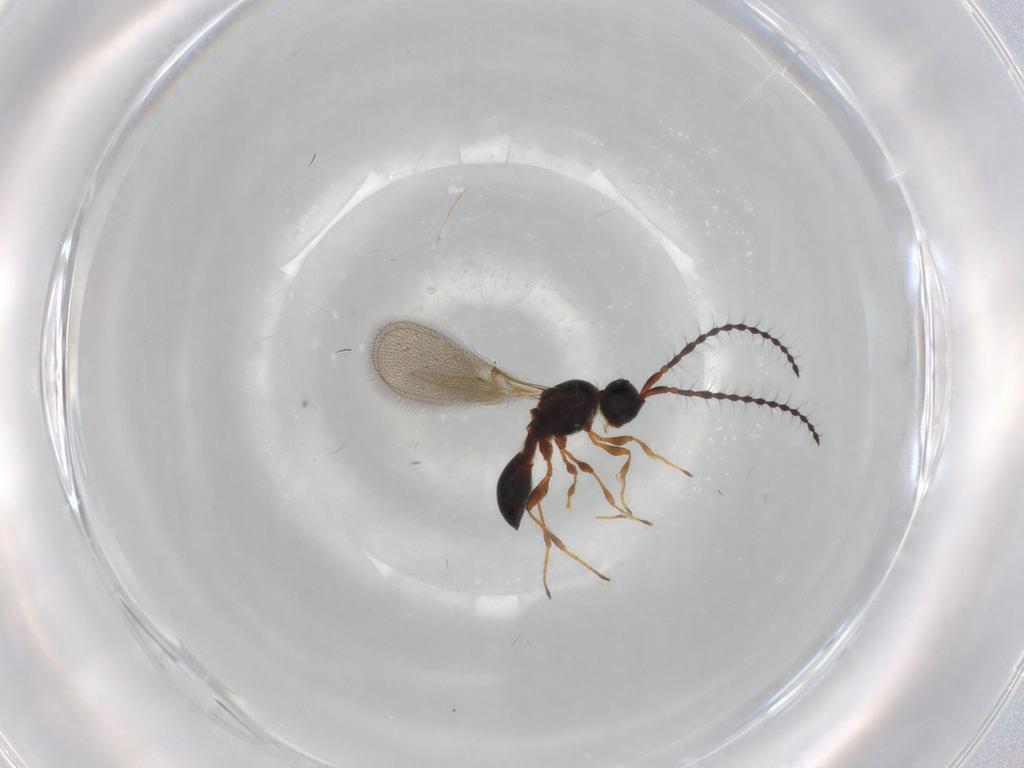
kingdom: Animalia
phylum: Arthropoda
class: Insecta
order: Hymenoptera
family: Diapriidae
